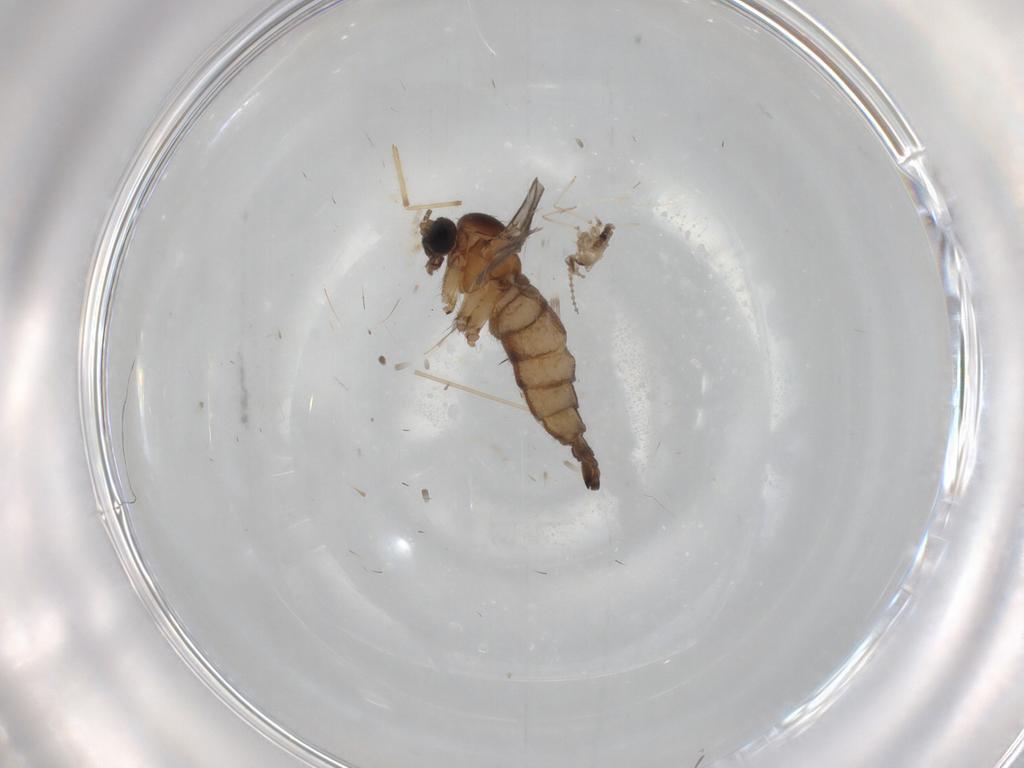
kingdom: Animalia
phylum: Arthropoda
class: Insecta
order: Diptera
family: Sciaridae
